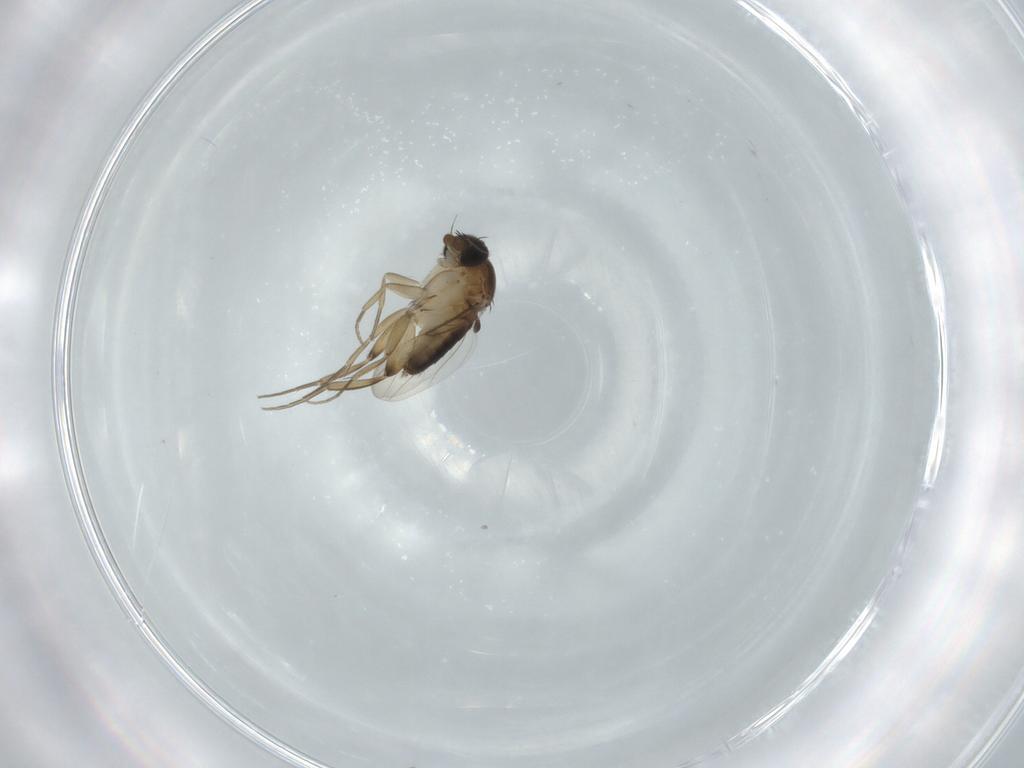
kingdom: Animalia
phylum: Arthropoda
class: Insecta
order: Diptera
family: Phoridae
